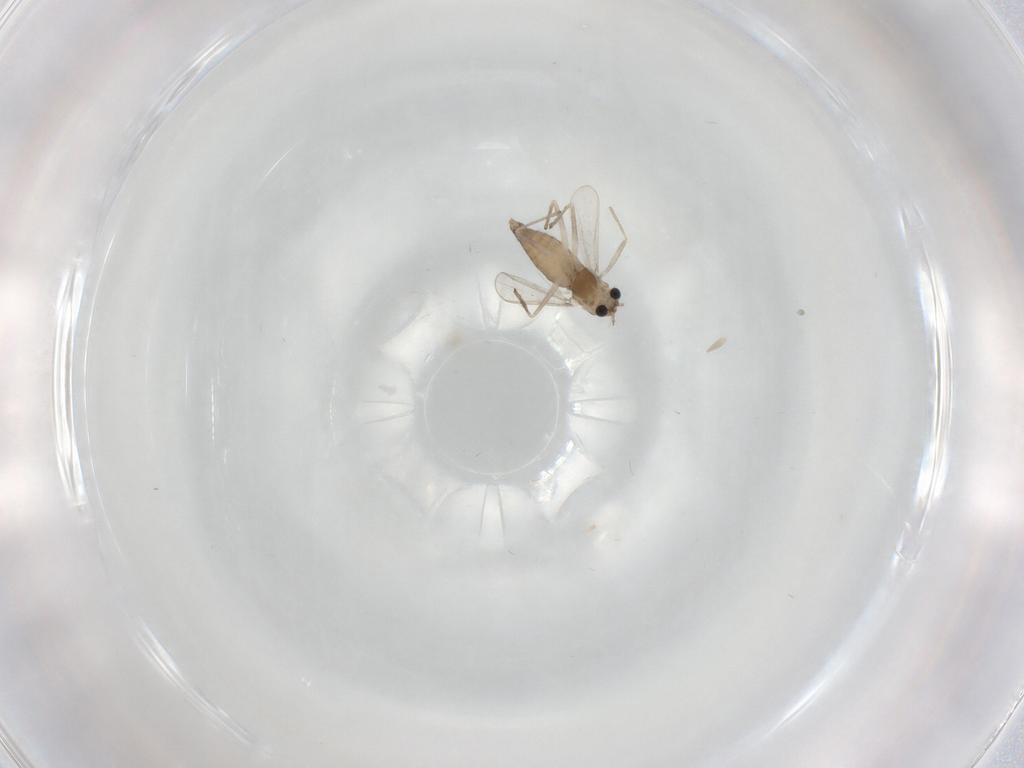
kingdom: Animalia
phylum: Arthropoda
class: Insecta
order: Diptera
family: Chironomidae
